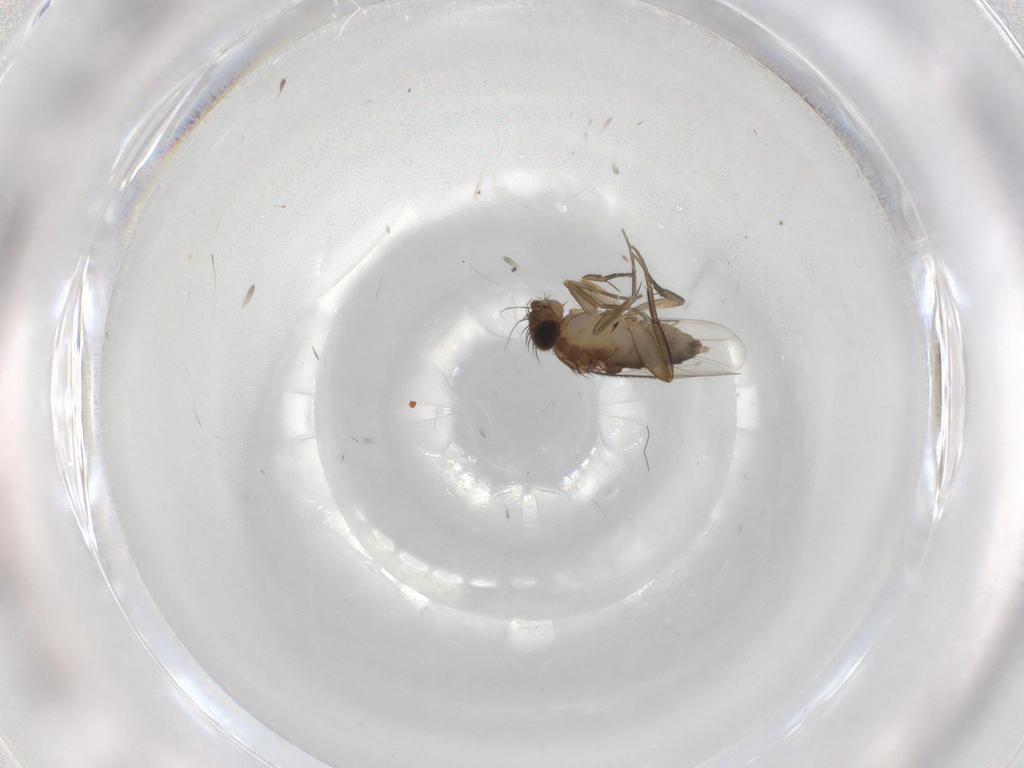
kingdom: Animalia
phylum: Arthropoda
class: Insecta
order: Diptera
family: Phoridae
